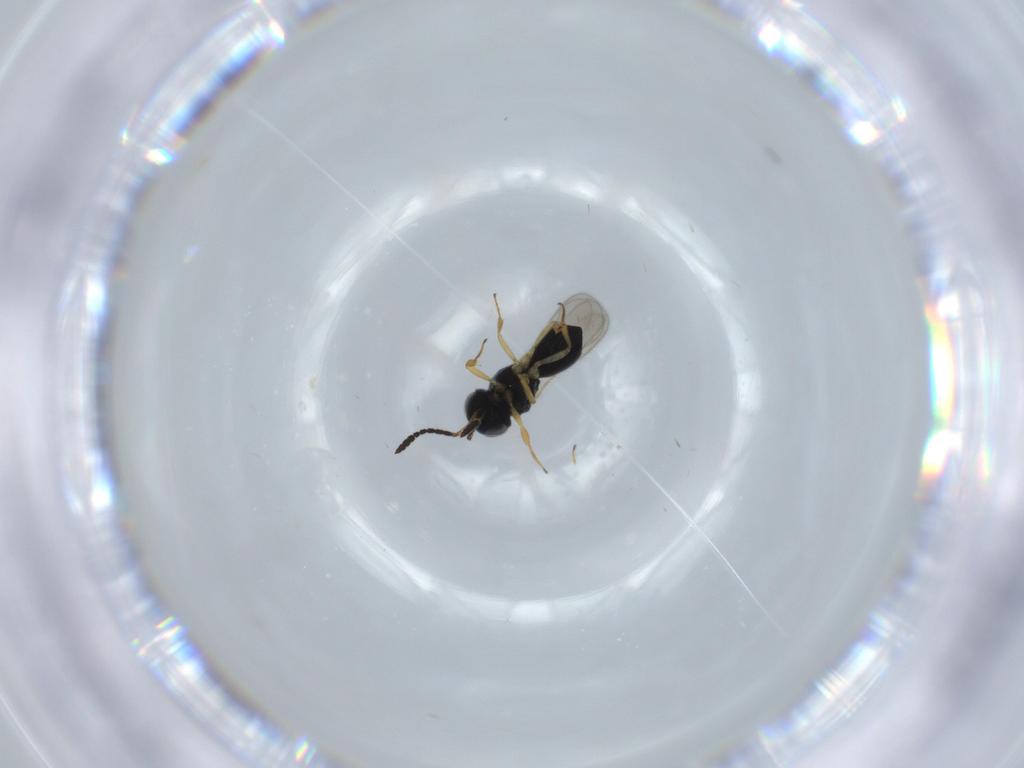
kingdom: Animalia
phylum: Arthropoda
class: Insecta
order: Hymenoptera
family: Scelionidae
